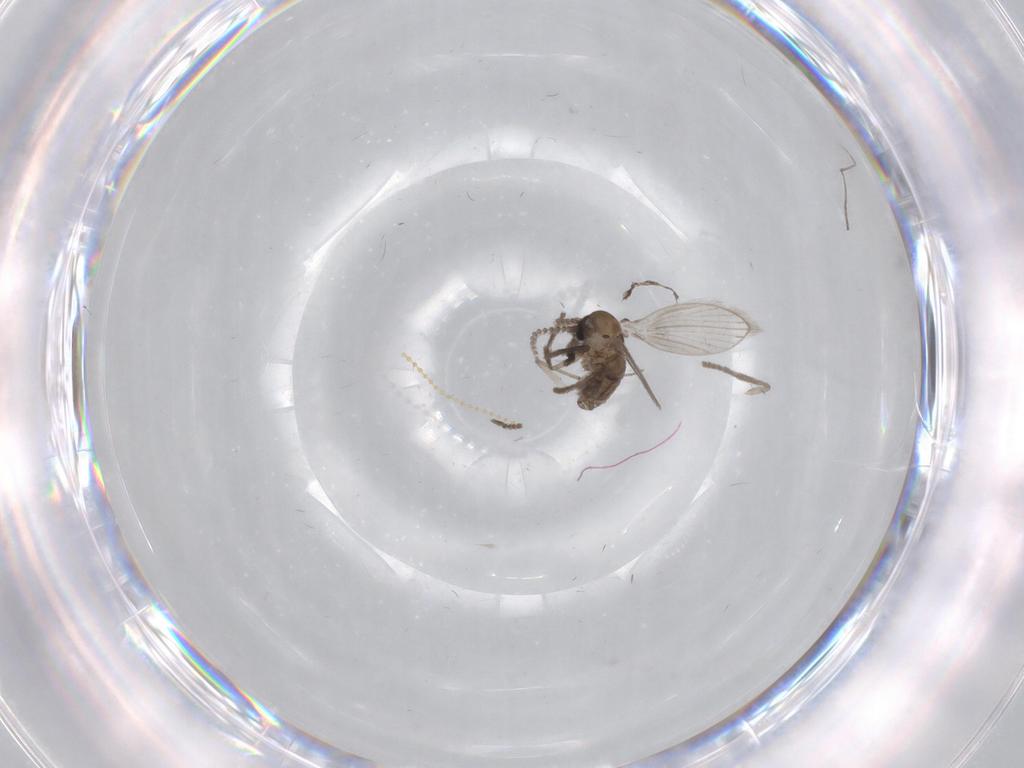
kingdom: Animalia
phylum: Arthropoda
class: Insecta
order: Diptera
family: Psychodidae
